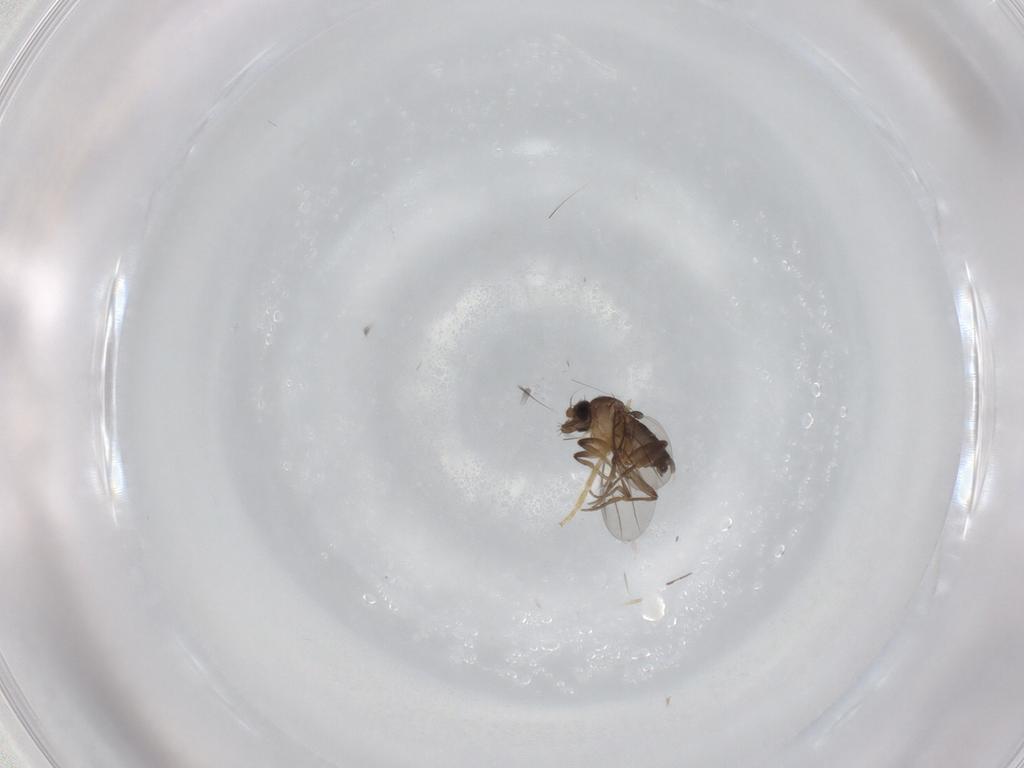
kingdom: Animalia
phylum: Arthropoda
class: Insecta
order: Diptera
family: Phoridae
